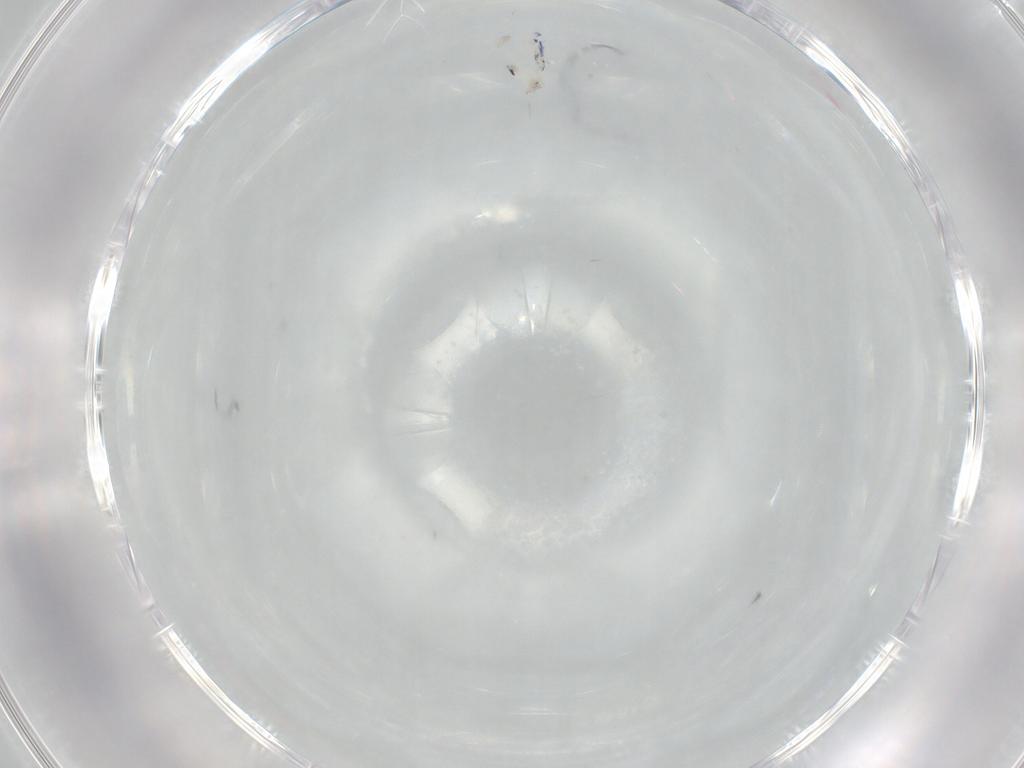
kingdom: Animalia
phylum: Arthropoda
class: Collembola
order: Entomobryomorpha
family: Entomobryidae
